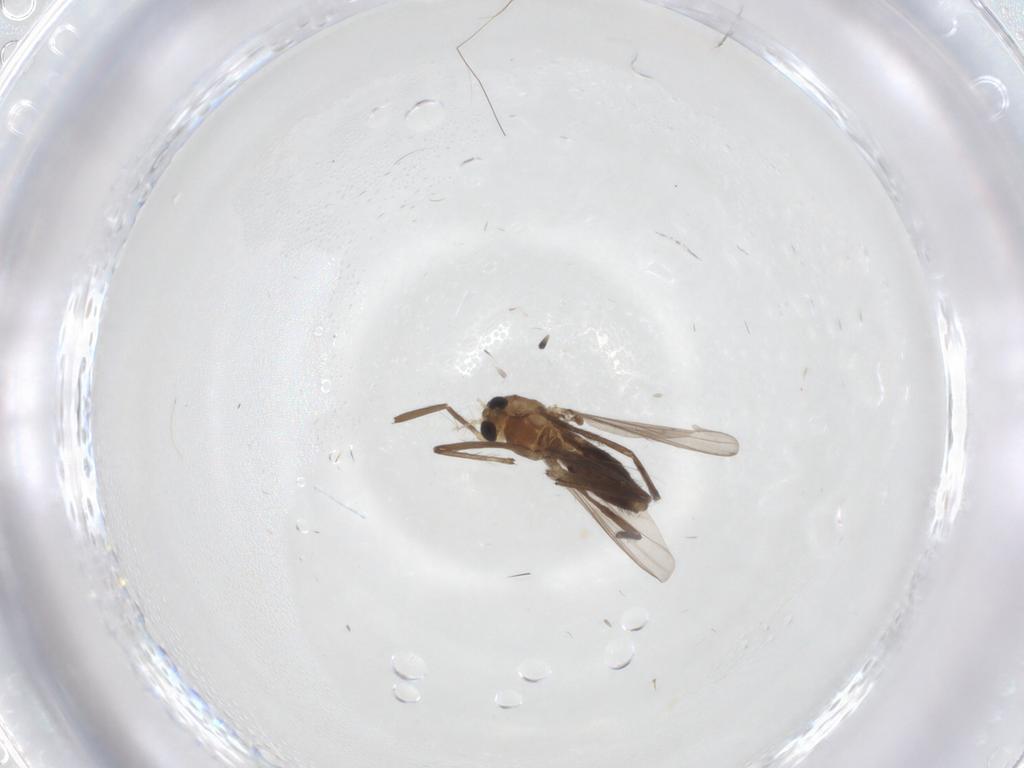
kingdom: Animalia
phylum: Arthropoda
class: Insecta
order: Diptera
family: Chironomidae
